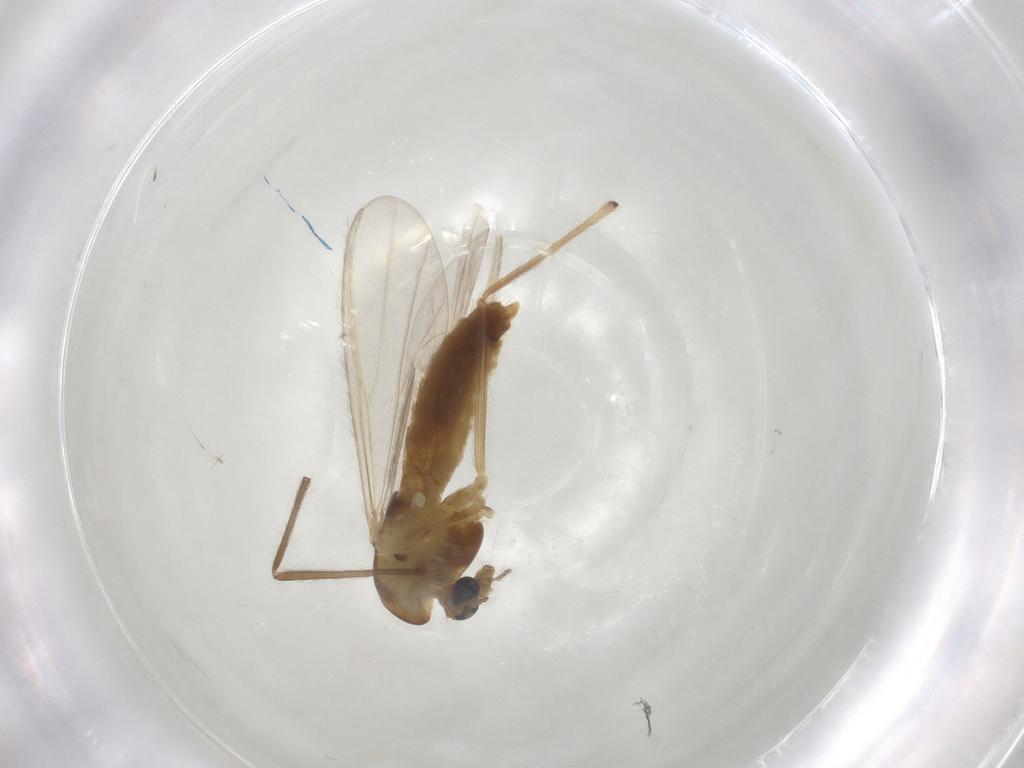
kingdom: Animalia
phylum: Arthropoda
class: Insecta
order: Diptera
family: Chironomidae
